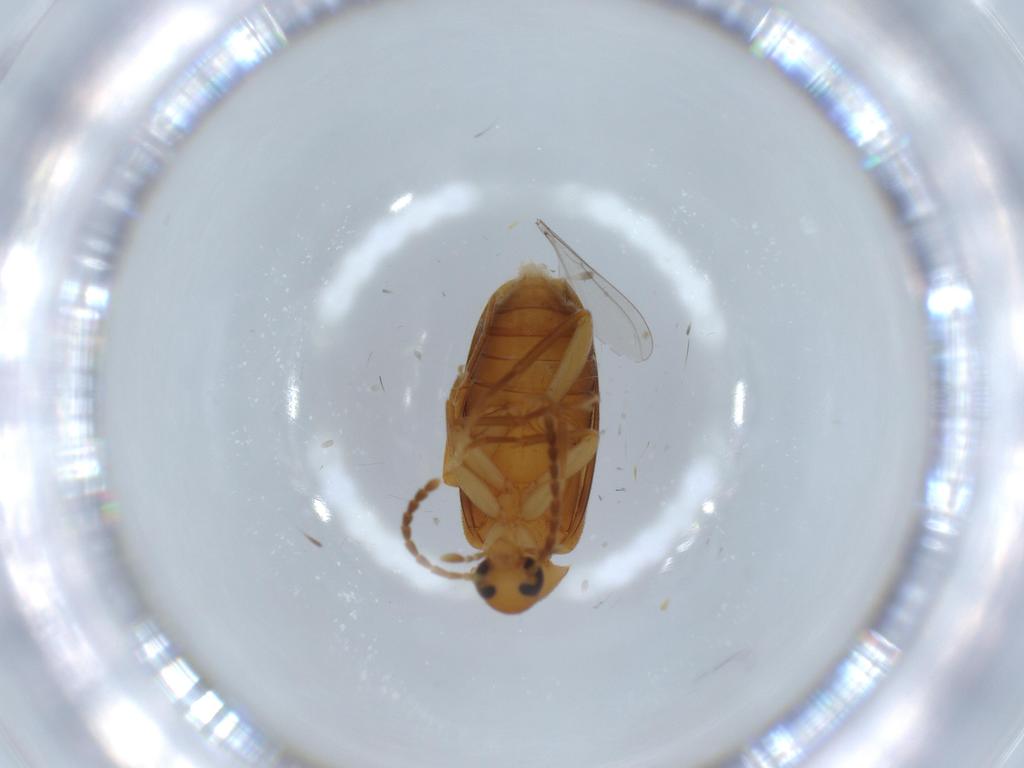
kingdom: Animalia
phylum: Arthropoda
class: Insecta
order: Coleoptera
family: Scraptiidae
